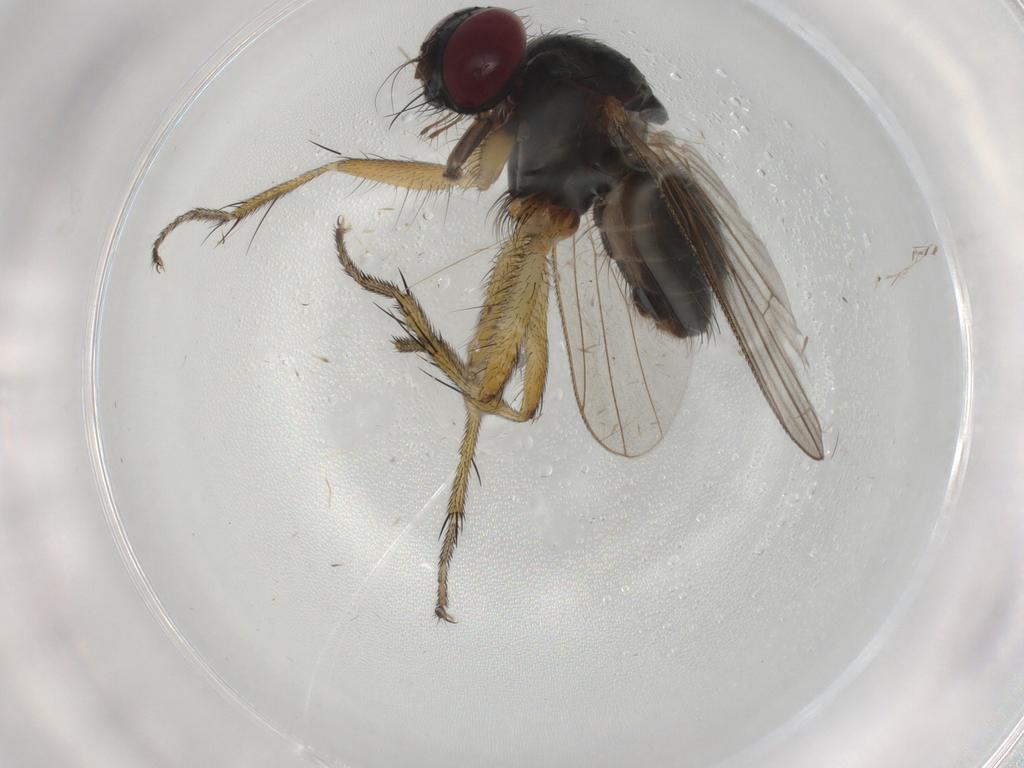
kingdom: Animalia
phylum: Arthropoda
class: Insecta
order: Diptera
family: Muscidae
